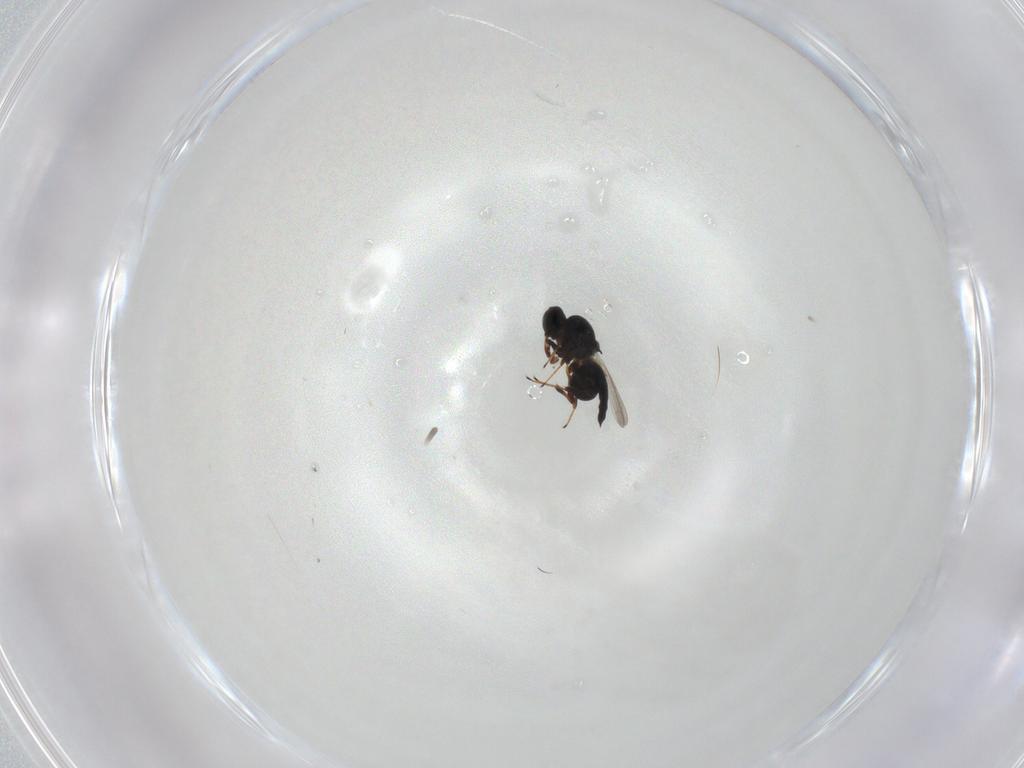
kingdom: Animalia
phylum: Arthropoda
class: Insecta
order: Hymenoptera
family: Platygastridae
